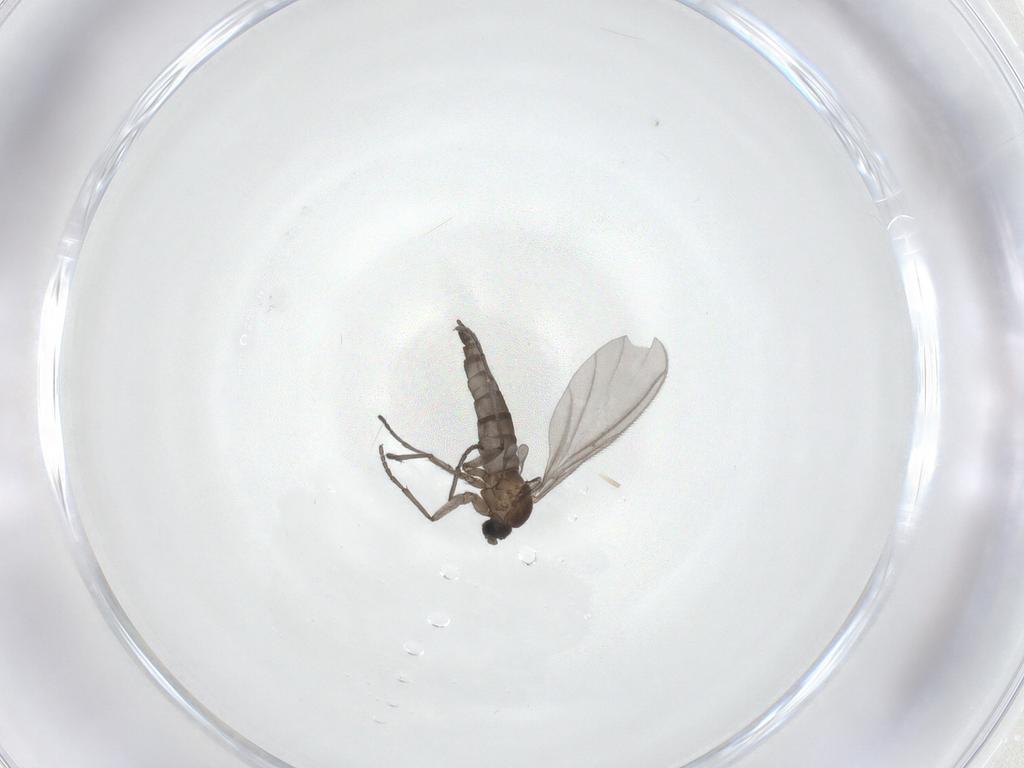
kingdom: Animalia
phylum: Arthropoda
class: Insecta
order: Diptera
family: Sciaridae
